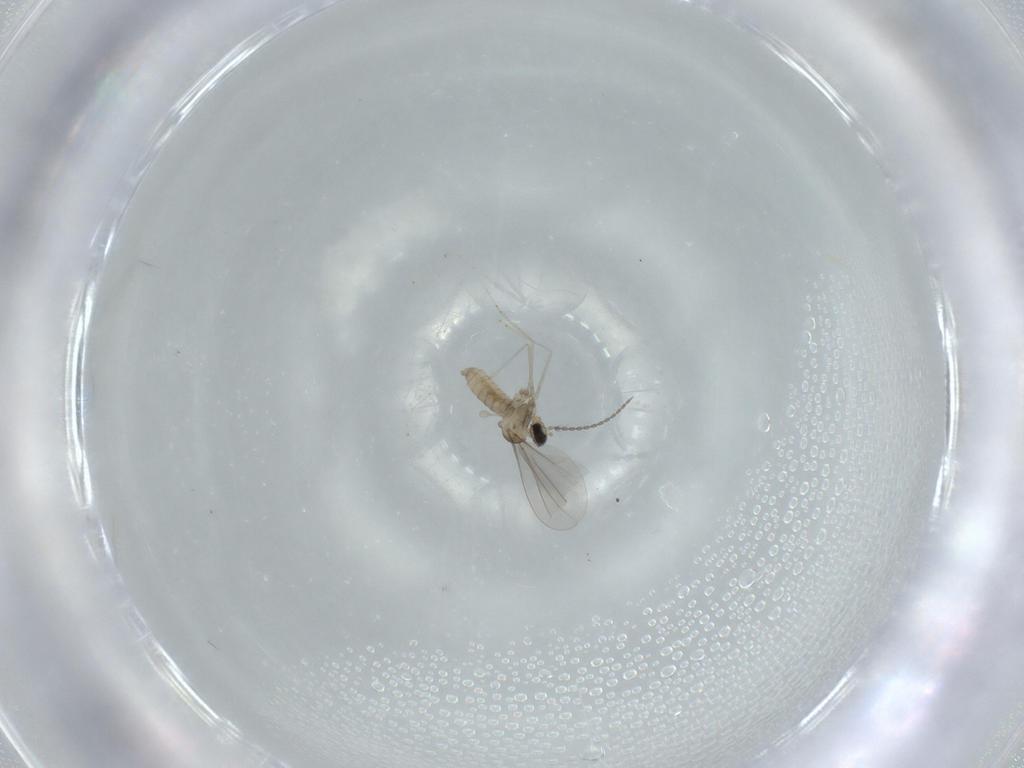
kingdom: Animalia
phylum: Arthropoda
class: Insecta
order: Diptera
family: Cecidomyiidae
